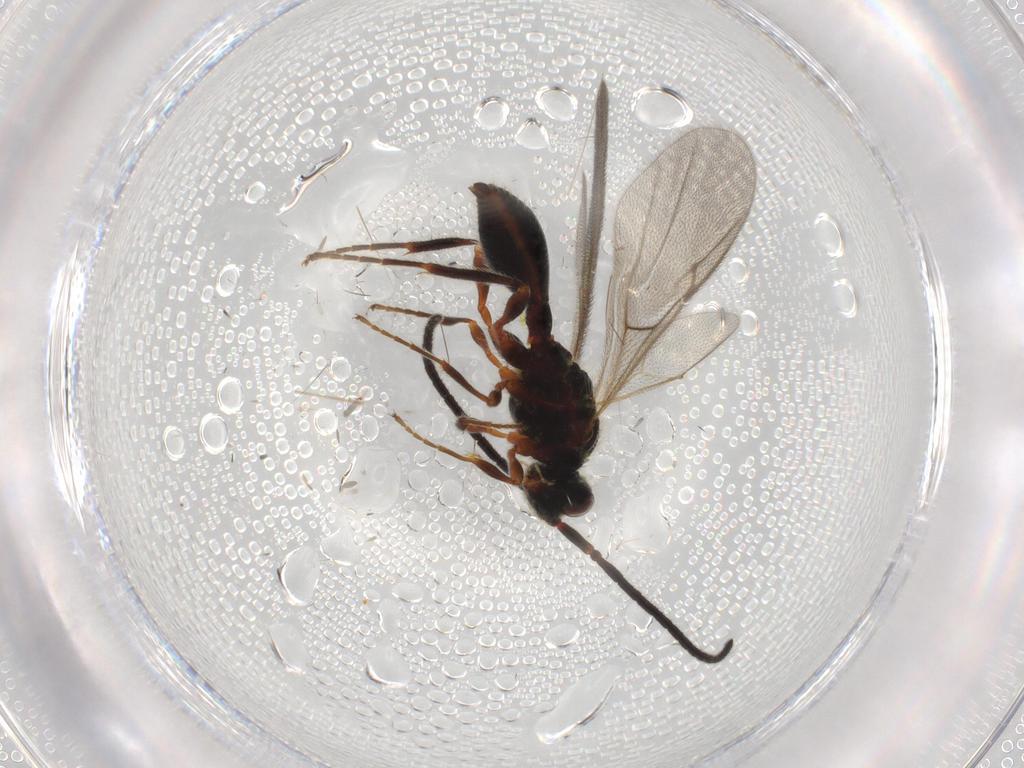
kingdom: Animalia
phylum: Arthropoda
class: Insecta
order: Hymenoptera
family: Diapriidae
